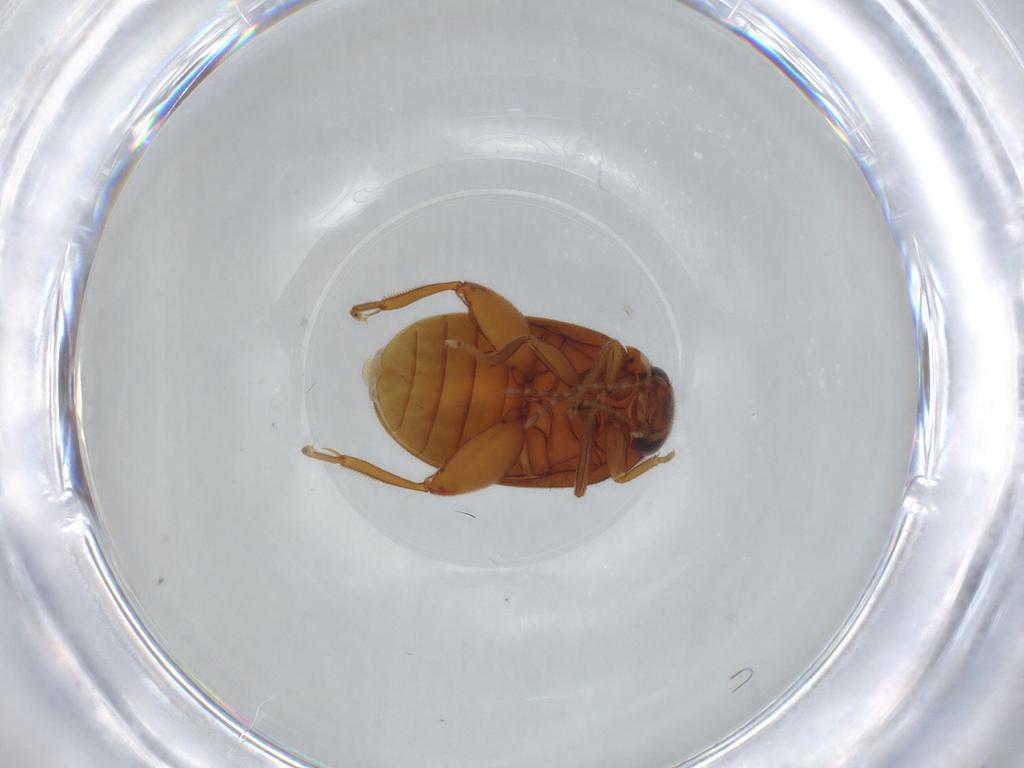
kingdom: Animalia
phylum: Arthropoda
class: Insecta
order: Coleoptera
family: Scirtidae
